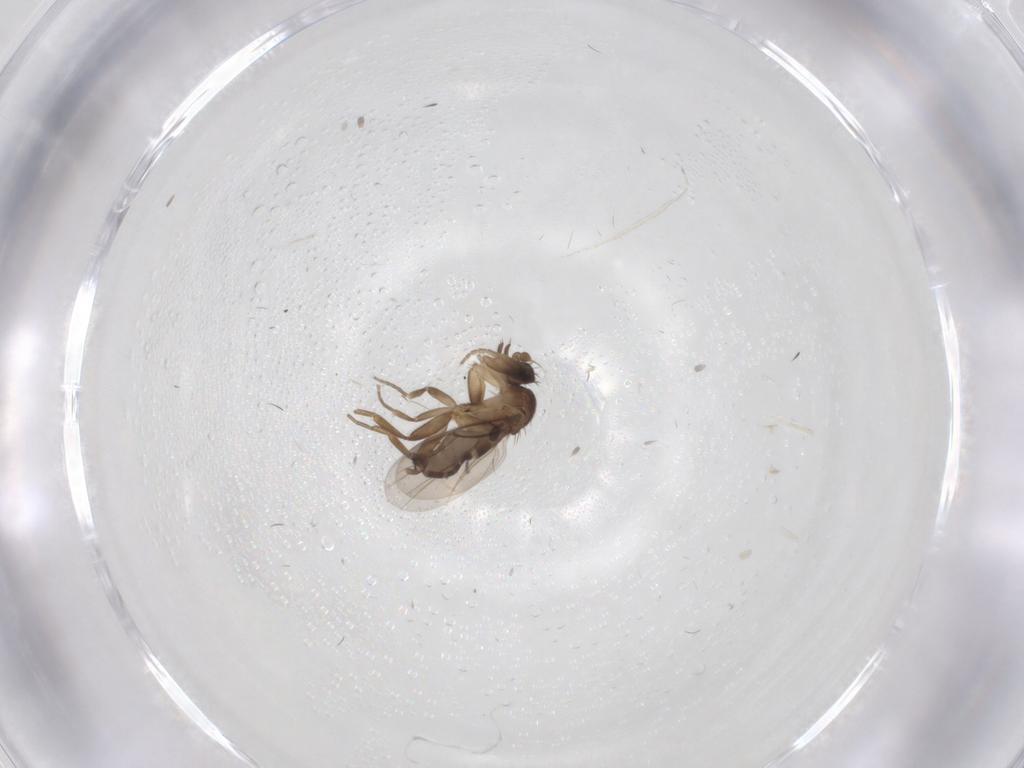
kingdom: Animalia
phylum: Arthropoda
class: Insecta
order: Diptera
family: Phoridae
